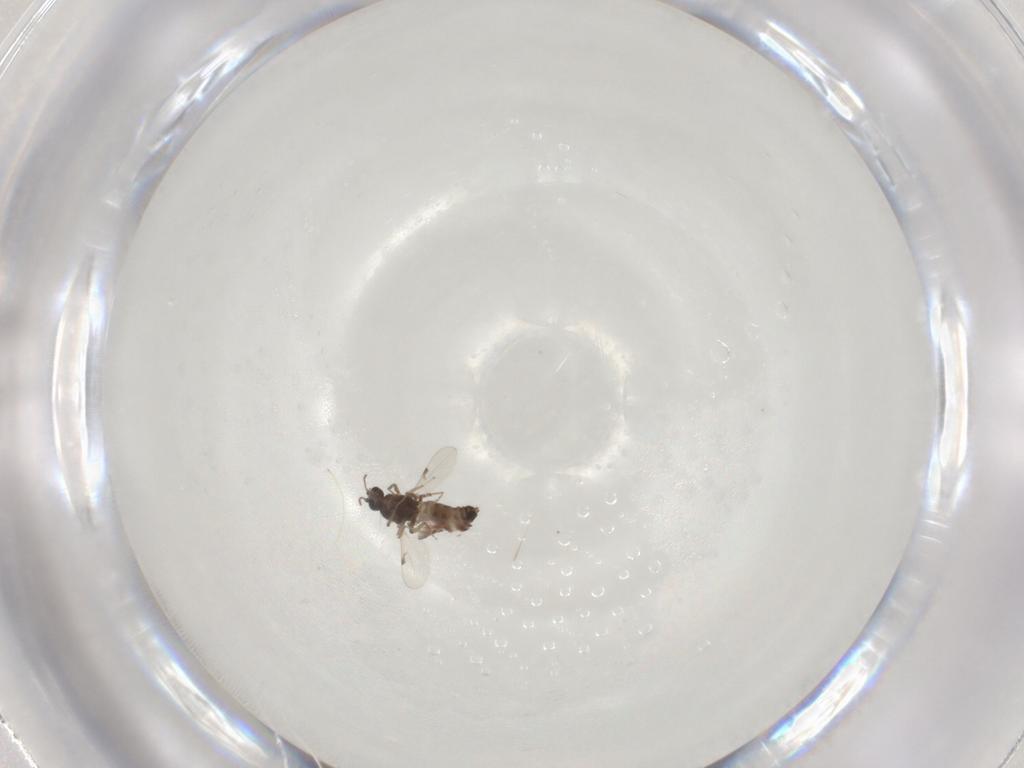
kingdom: Animalia
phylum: Arthropoda
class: Insecta
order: Diptera
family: Ceratopogonidae
